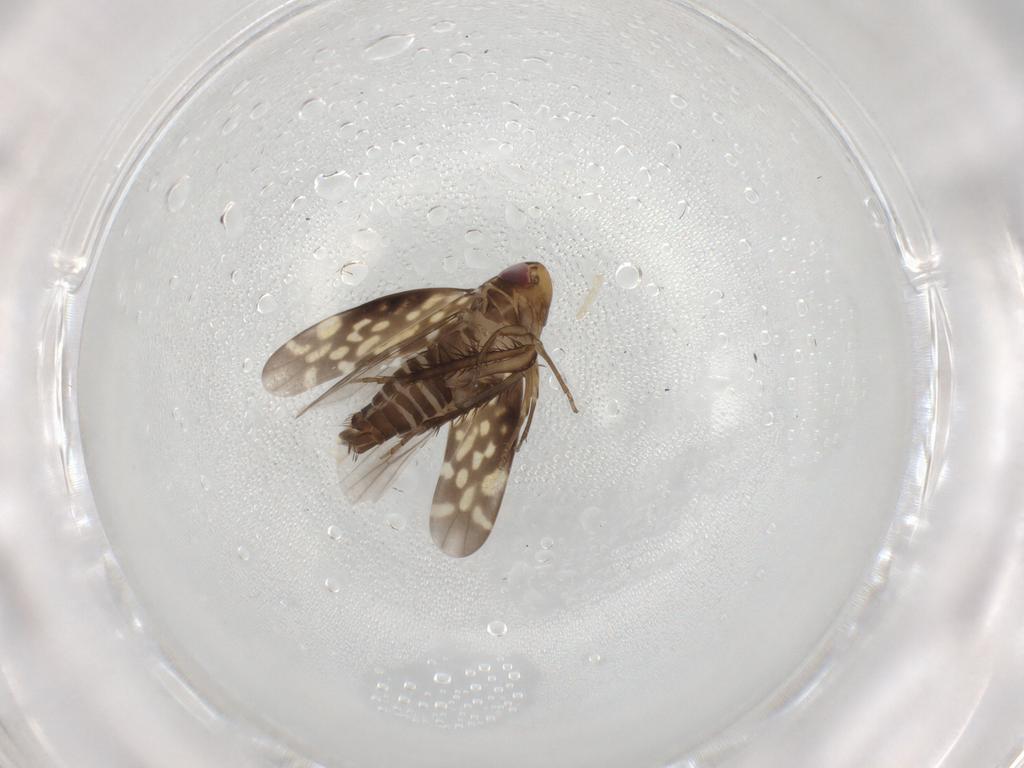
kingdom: Animalia
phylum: Arthropoda
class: Insecta
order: Hemiptera
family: Cicadellidae
